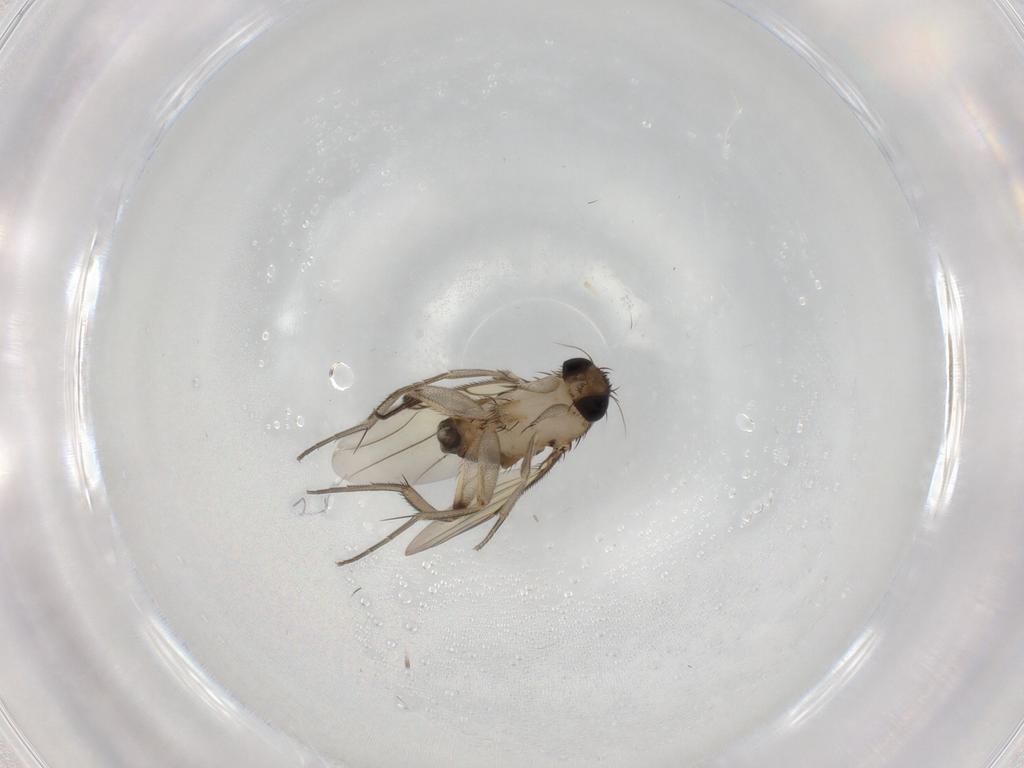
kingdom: Animalia
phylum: Arthropoda
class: Insecta
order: Diptera
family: Phoridae
